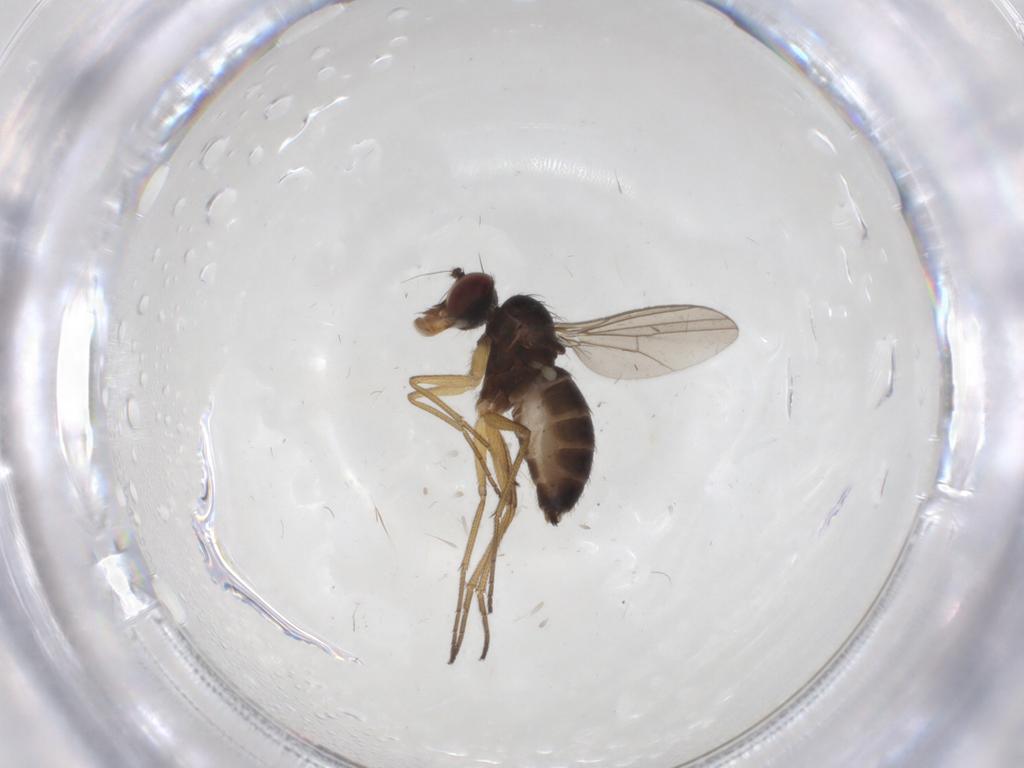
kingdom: Animalia
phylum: Arthropoda
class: Insecta
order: Diptera
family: Dolichopodidae
